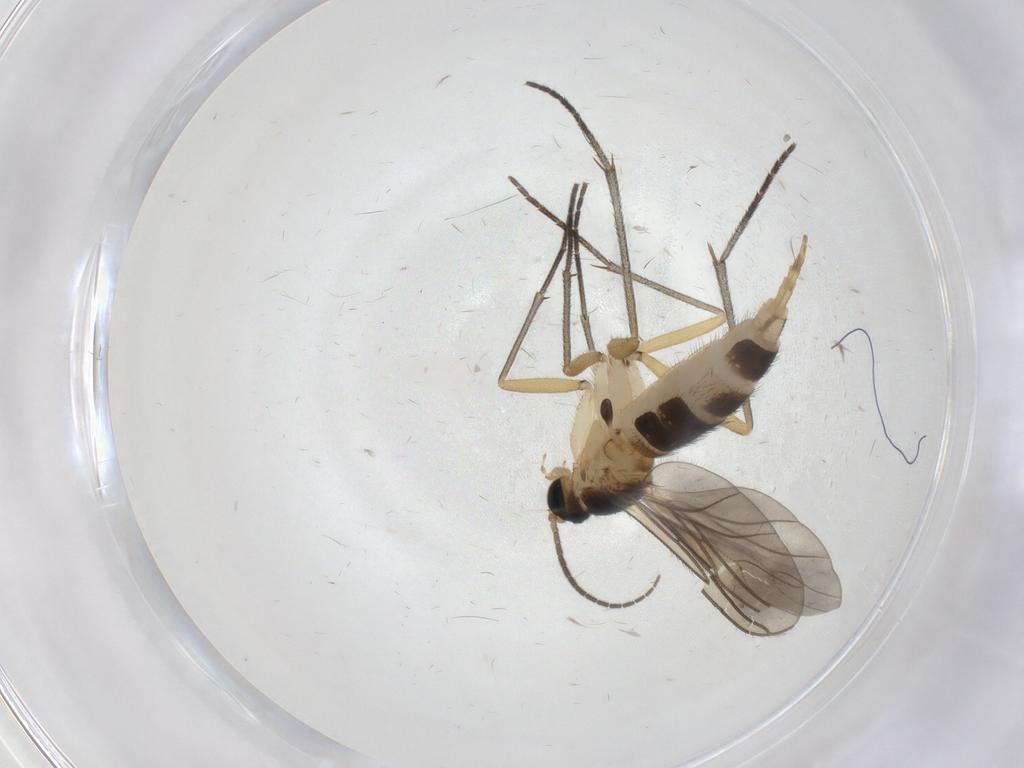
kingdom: Animalia
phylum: Arthropoda
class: Insecta
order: Diptera
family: Sciaridae
